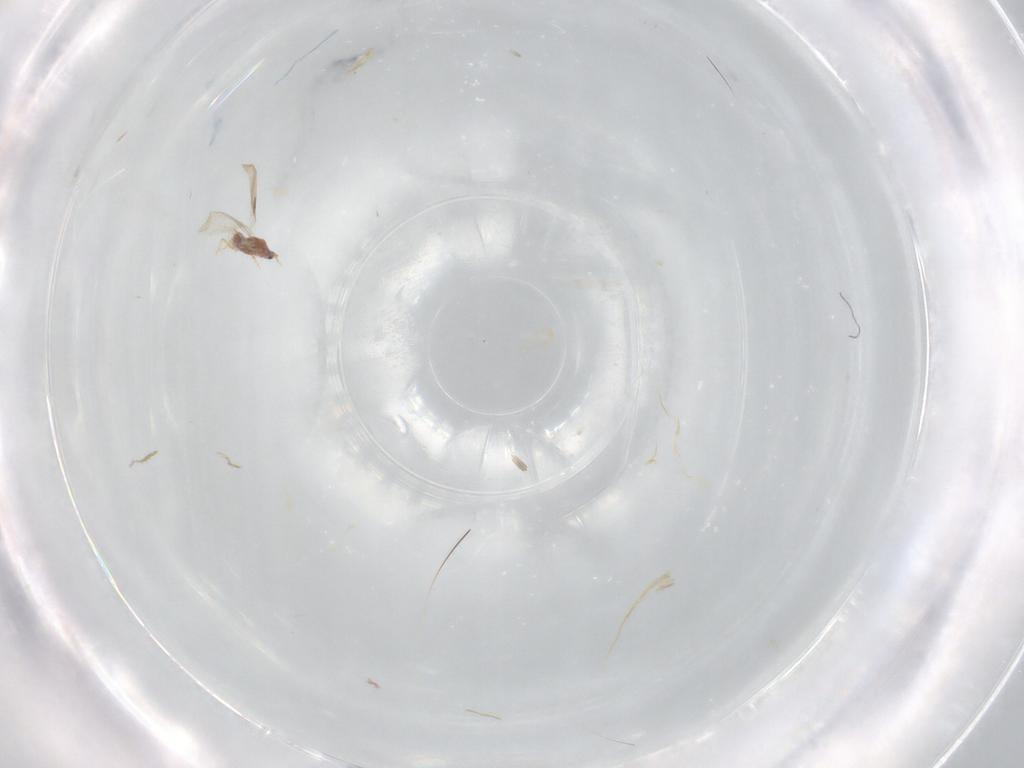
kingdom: Animalia
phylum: Arthropoda
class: Insecta
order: Hemiptera
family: Diaspididae
